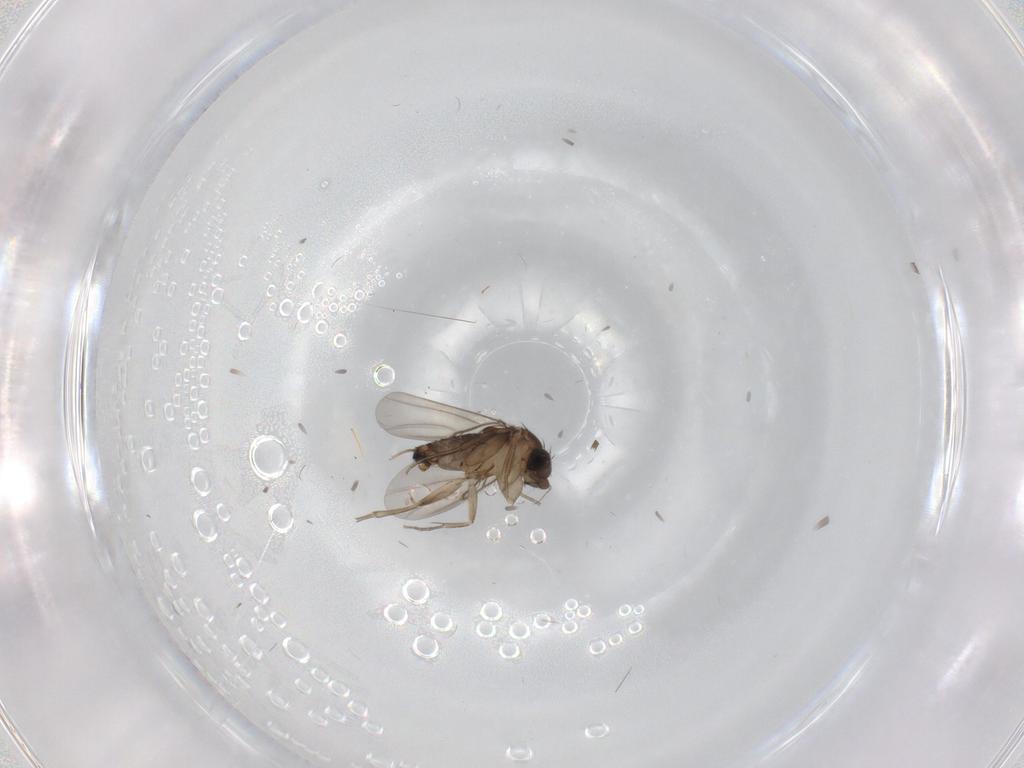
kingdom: Animalia
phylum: Arthropoda
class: Insecta
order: Diptera
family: Phoridae
